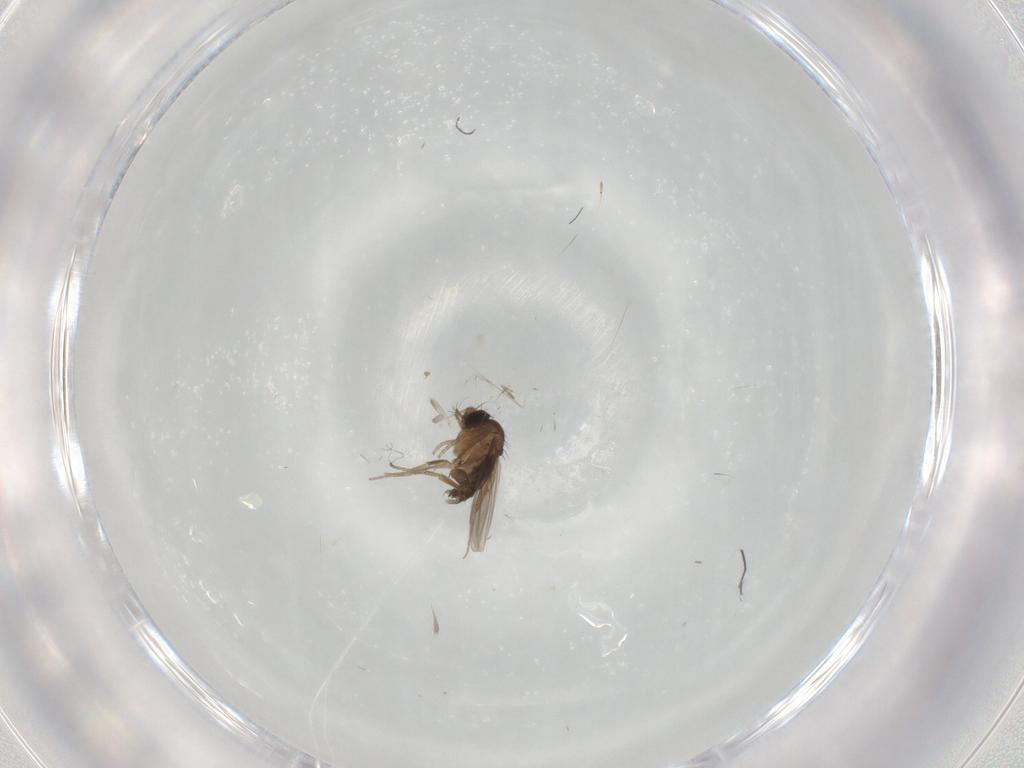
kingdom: Animalia
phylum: Arthropoda
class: Insecta
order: Diptera
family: Phoridae
